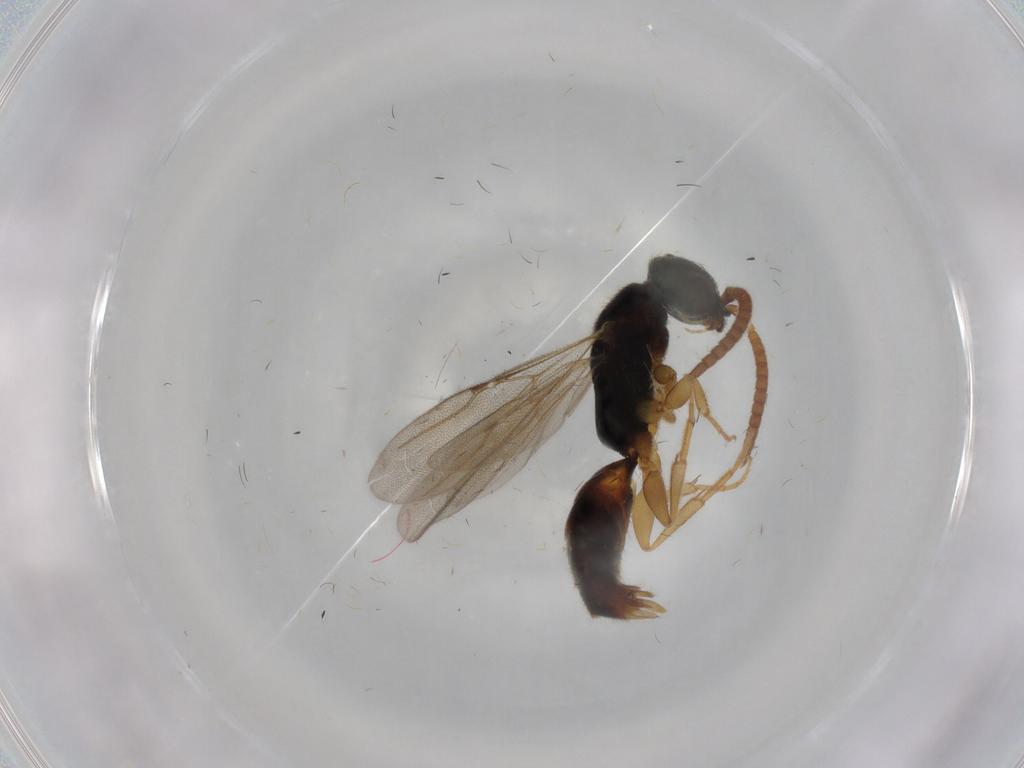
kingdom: Animalia
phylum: Arthropoda
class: Insecta
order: Hymenoptera
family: Bethylidae
